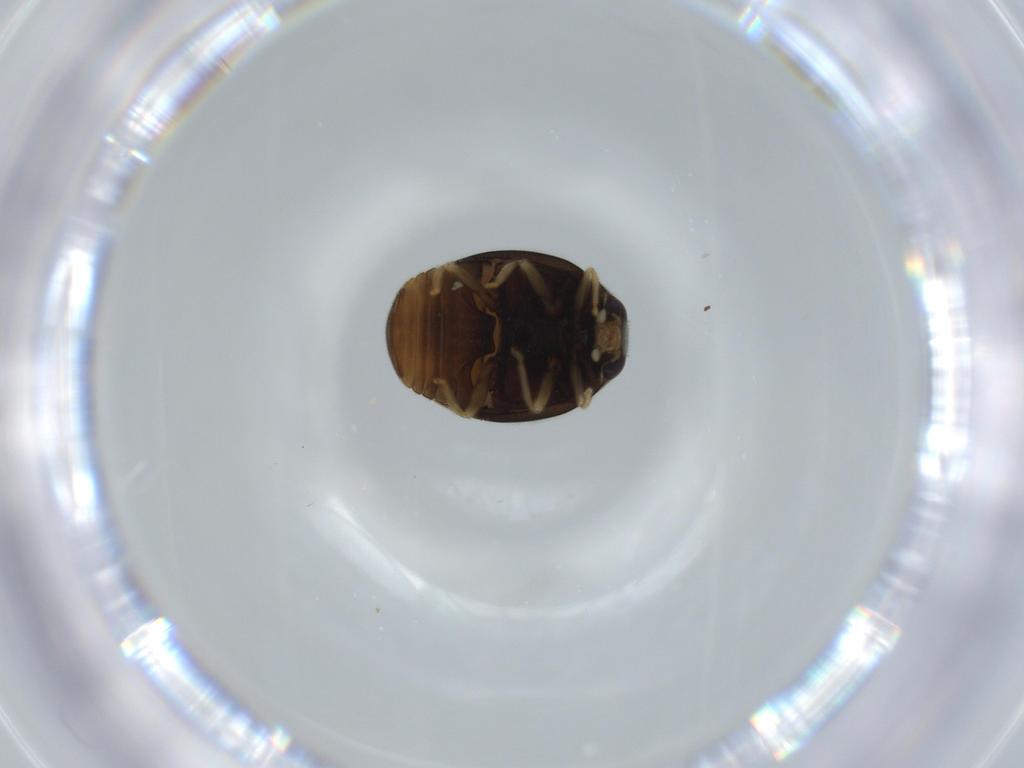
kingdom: Animalia
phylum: Arthropoda
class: Insecta
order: Coleoptera
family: Coccinellidae
